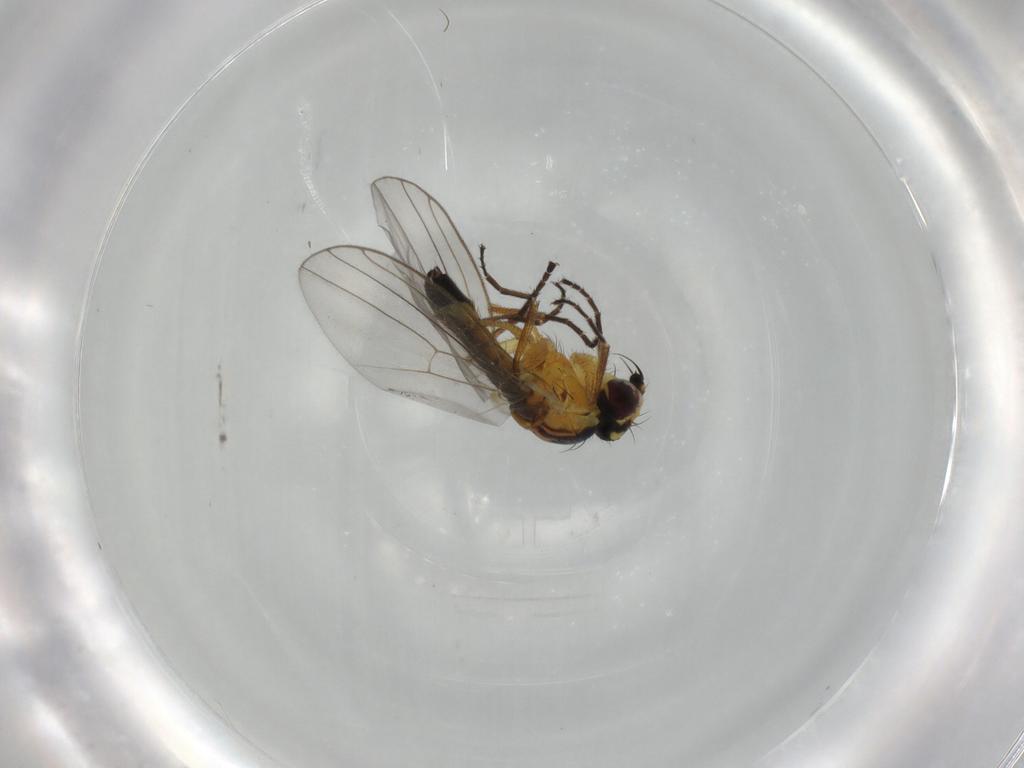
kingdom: Animalia
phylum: Arthropoda
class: Insecta
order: Diptera
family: Agromyzidae
